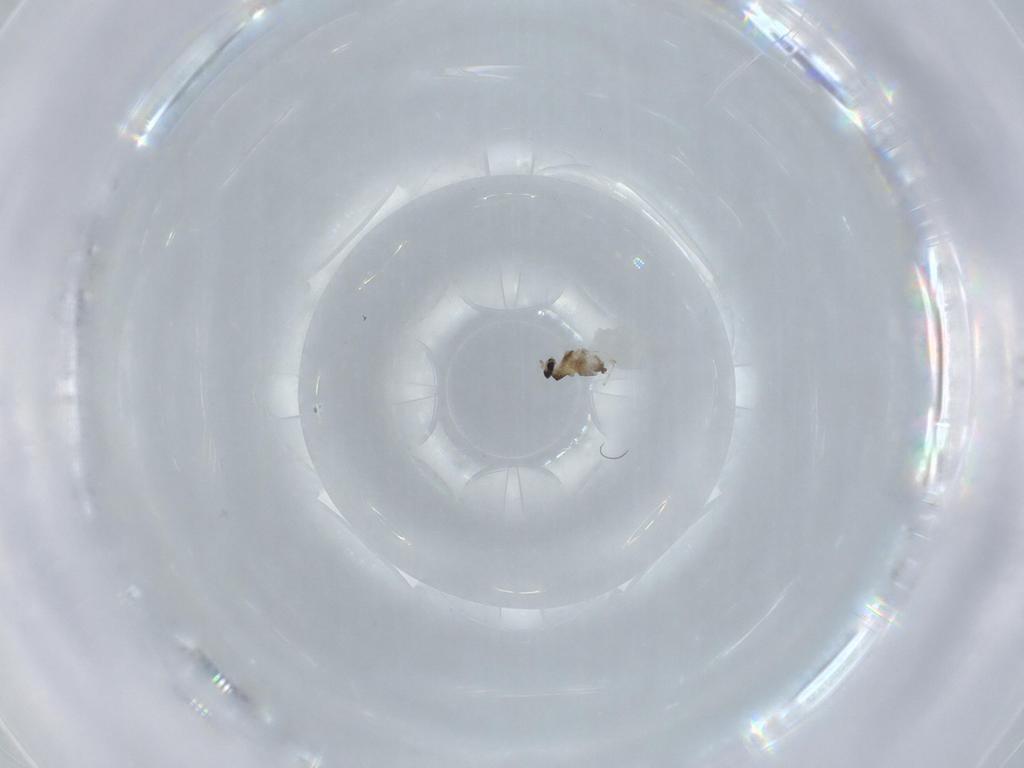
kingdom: Animalia
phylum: Arthropoda
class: Insecta
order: Diptera
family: Cecidomyiidae
